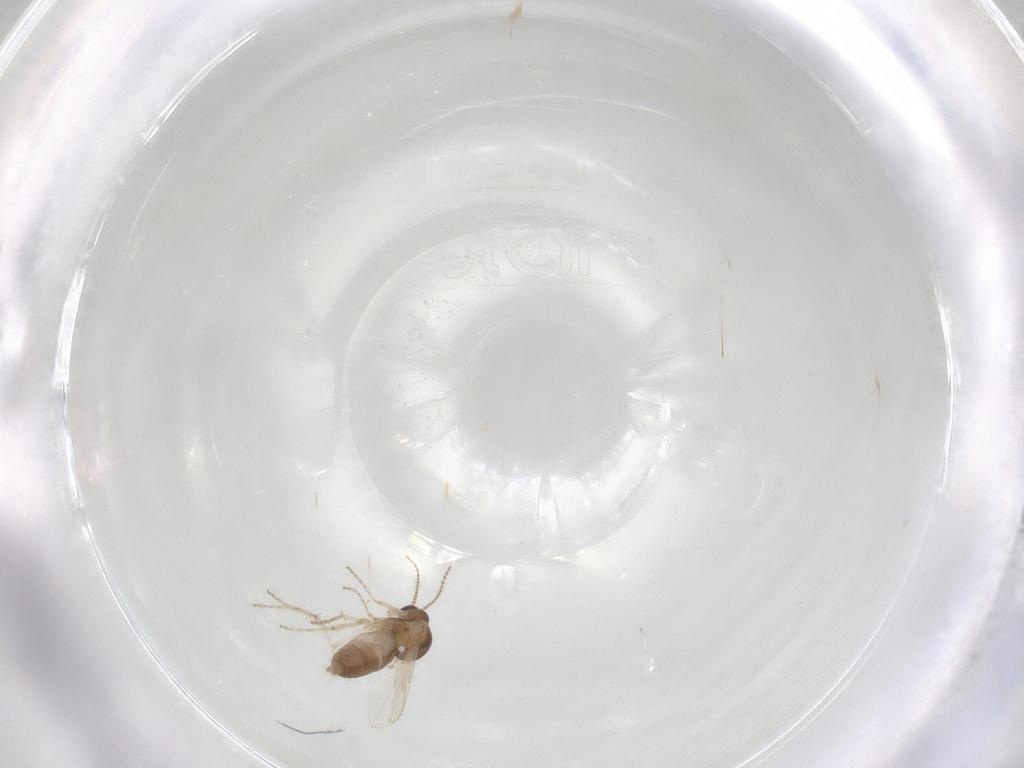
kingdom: Animalia
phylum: Arthropoda
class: Insecta
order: Diptera
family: Ceratopogonidae
